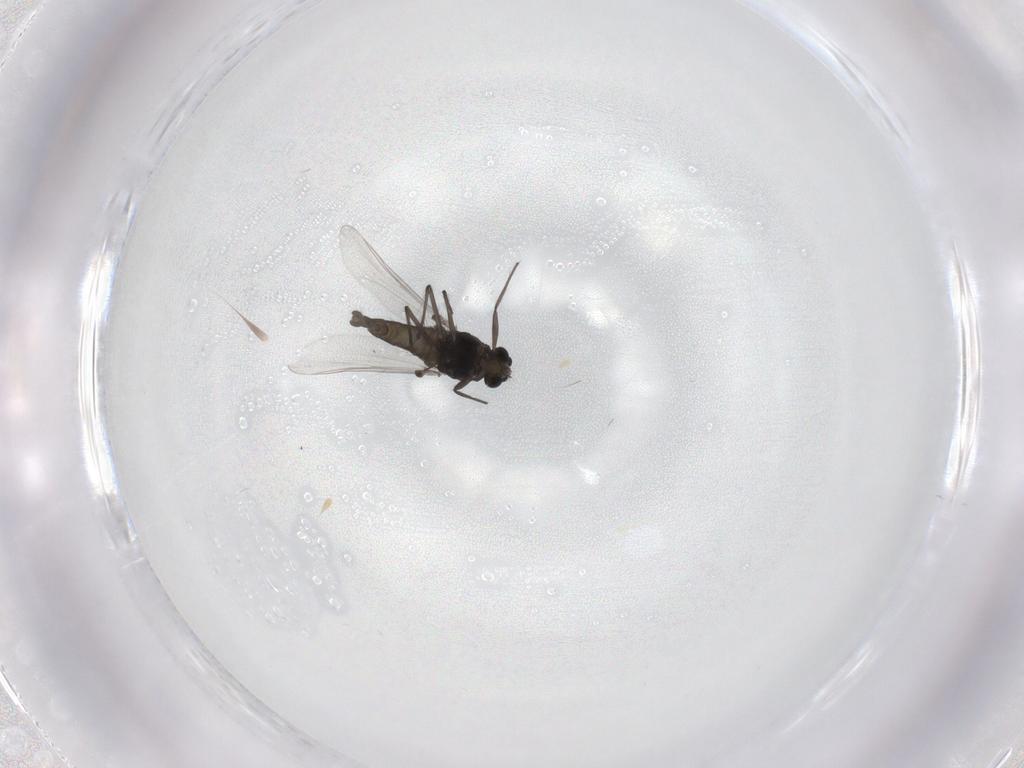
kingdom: Animalia
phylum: Arthropoda
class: Insecta
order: Diptera
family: Chironomidae
